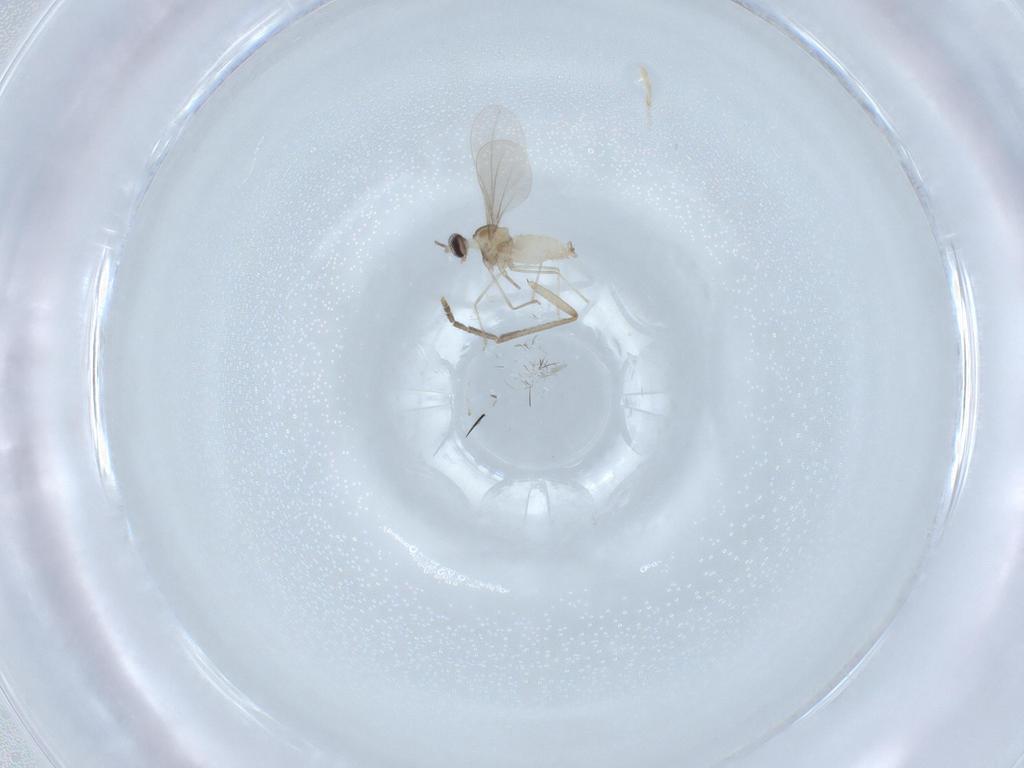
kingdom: Animalia
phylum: Arthropoda
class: Insecta
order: Diptera
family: Cecidomyiidae
